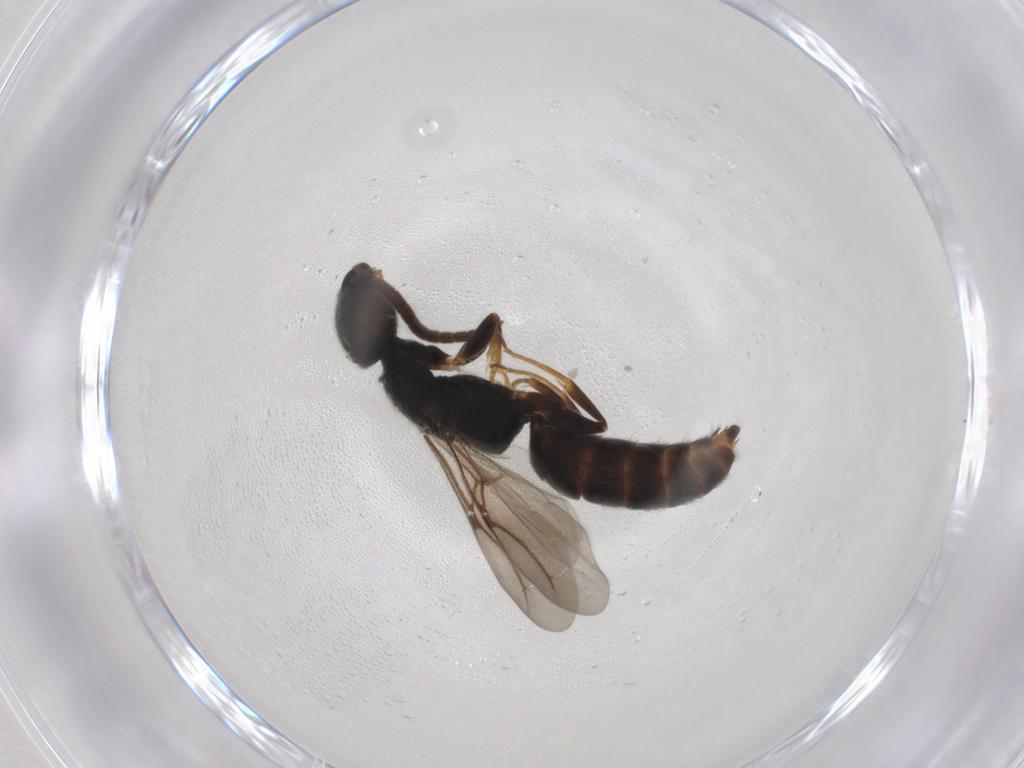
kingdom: Animalia
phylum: Arthropoda
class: Insecta
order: Hymenoptera
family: Bethylidae
